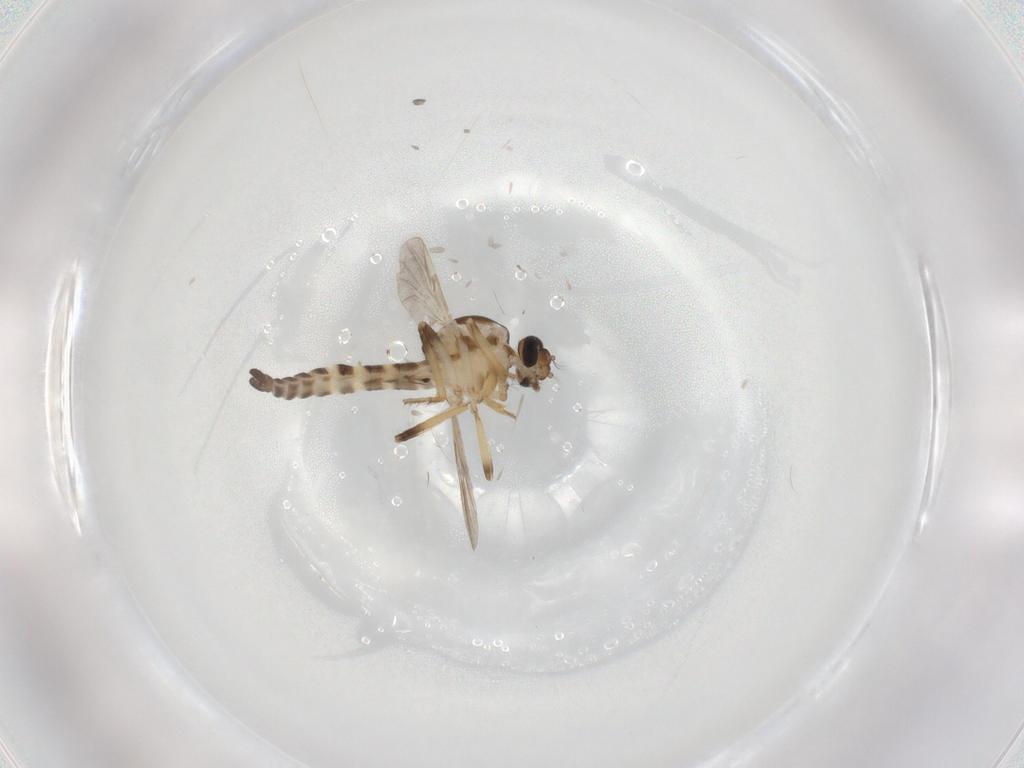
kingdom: Animalia
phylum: Arthropoda
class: Insecta
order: Diptera
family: Ceratopogonidae
